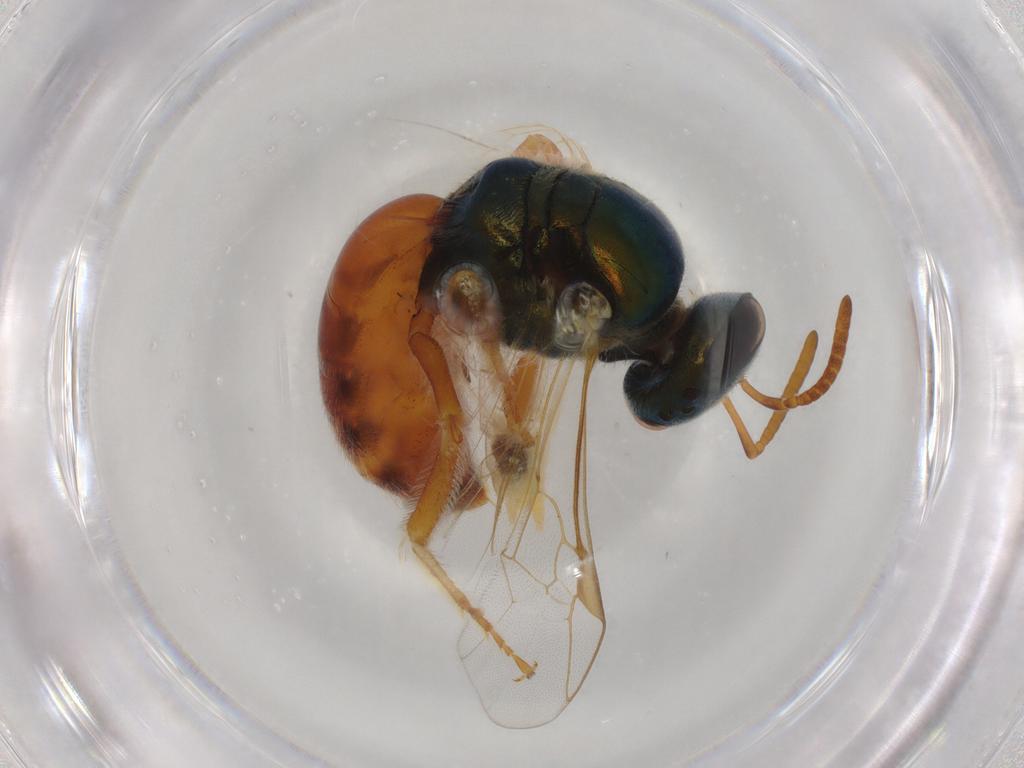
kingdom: Animalia
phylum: Arthropoda
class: Insecta
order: Hymenoptera
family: Halictidae
